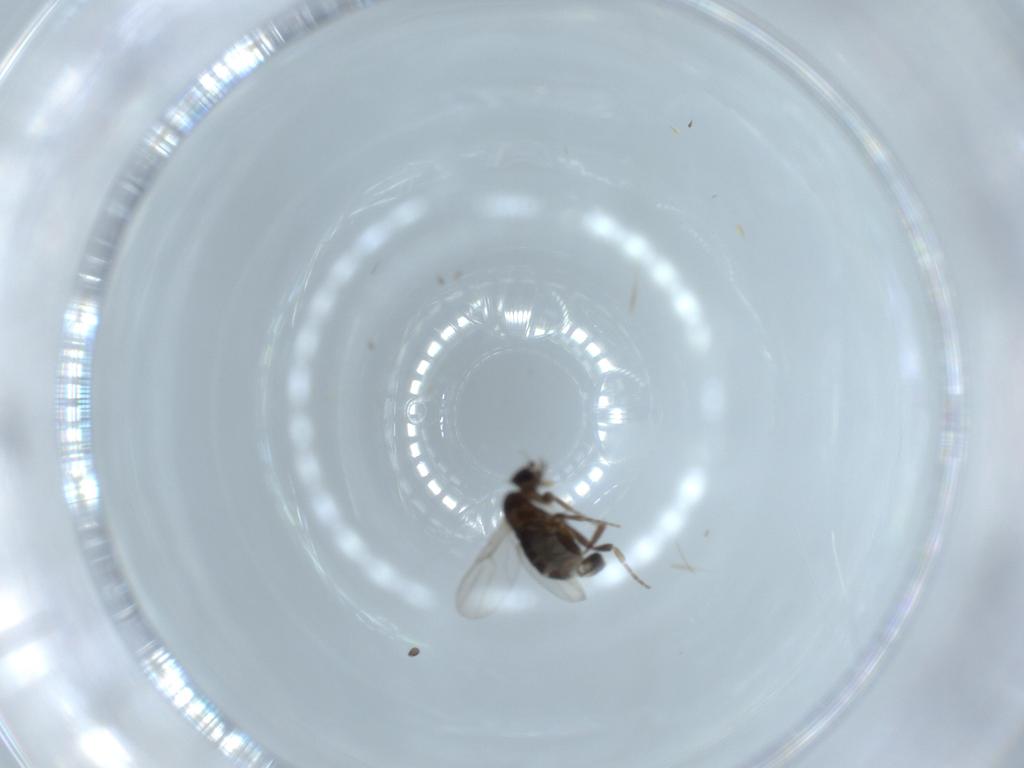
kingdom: Animalia
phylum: Arthropoda
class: Insecta
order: Diptera
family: Phoridae
